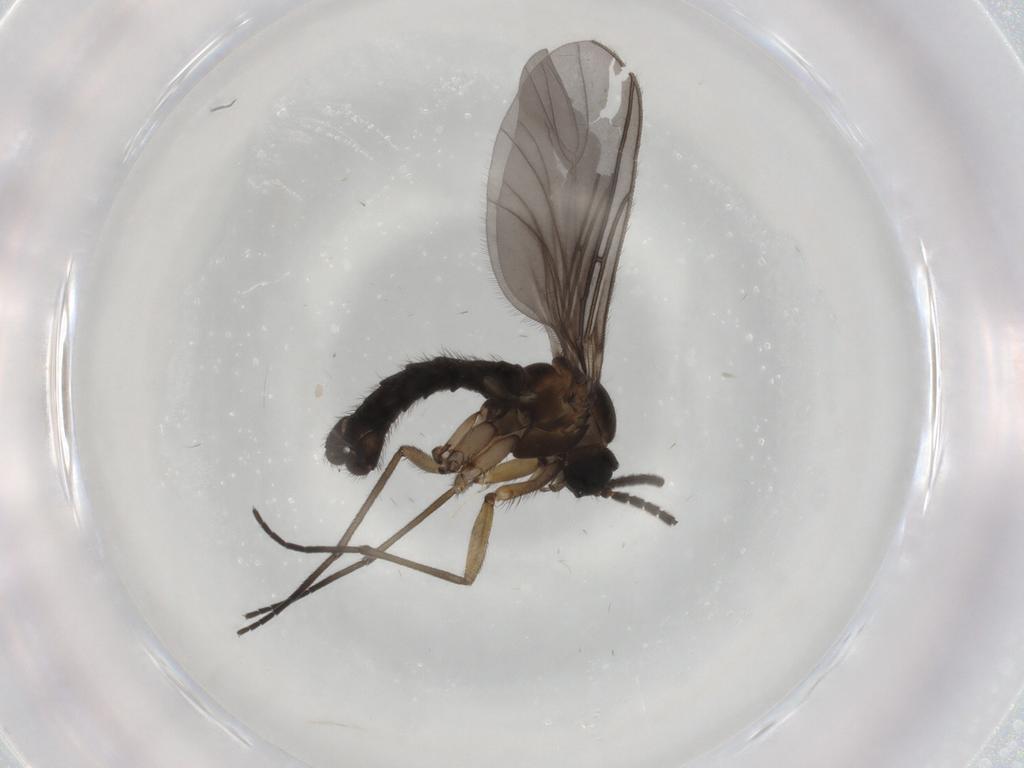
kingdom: Animalia
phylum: Arthropoda
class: Insecta
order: Diptera
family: Sciaridae
